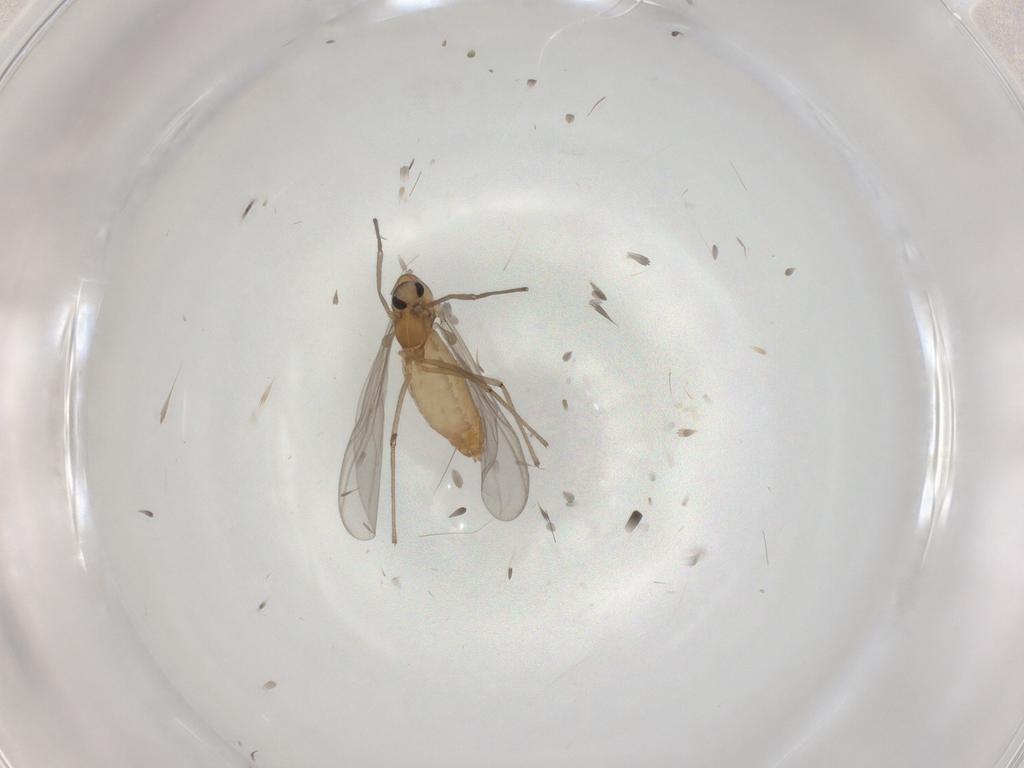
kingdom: Animalia
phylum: Arthropoda
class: Insecta
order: Diptera
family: Chironomidae
